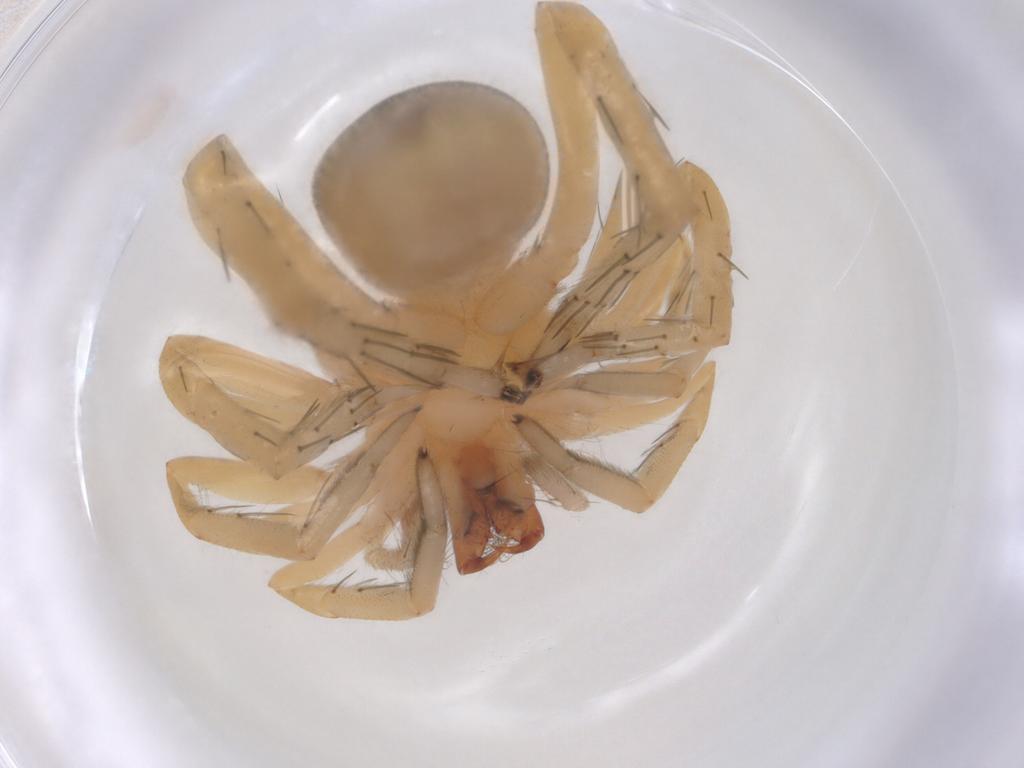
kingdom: Animalia
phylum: Arthropoda
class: Arachnida
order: Araneae
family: Clubionidae
